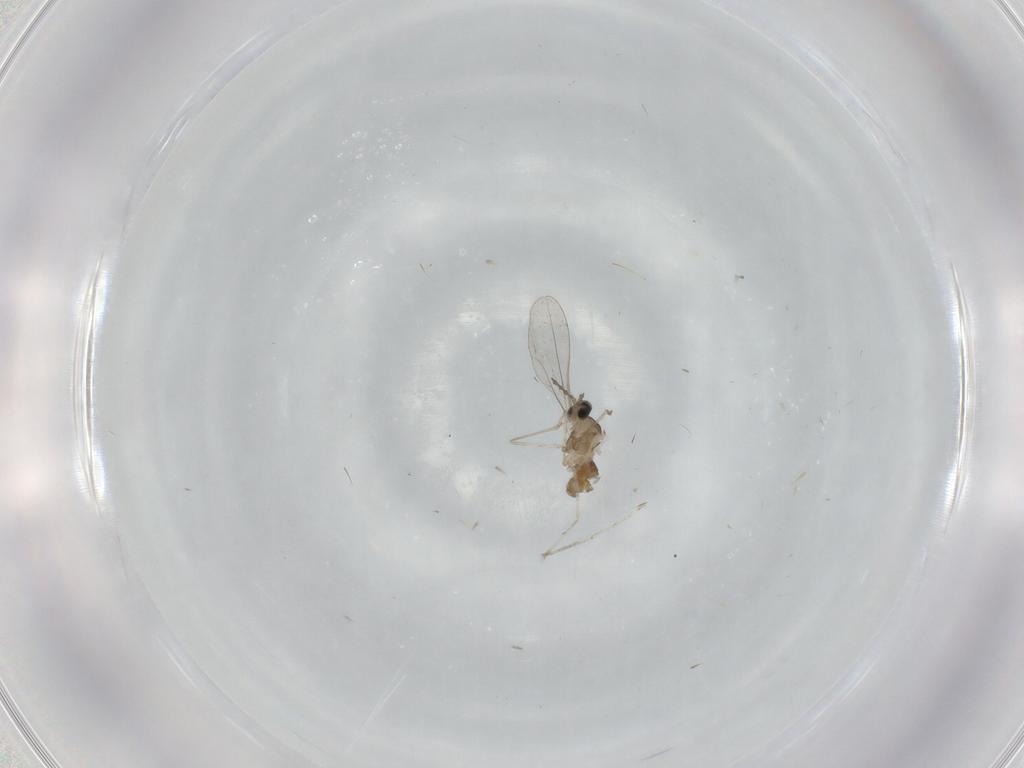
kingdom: Animalia
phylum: Arthropoda
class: Insecta
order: Diptera
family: Cecidomyiidae
